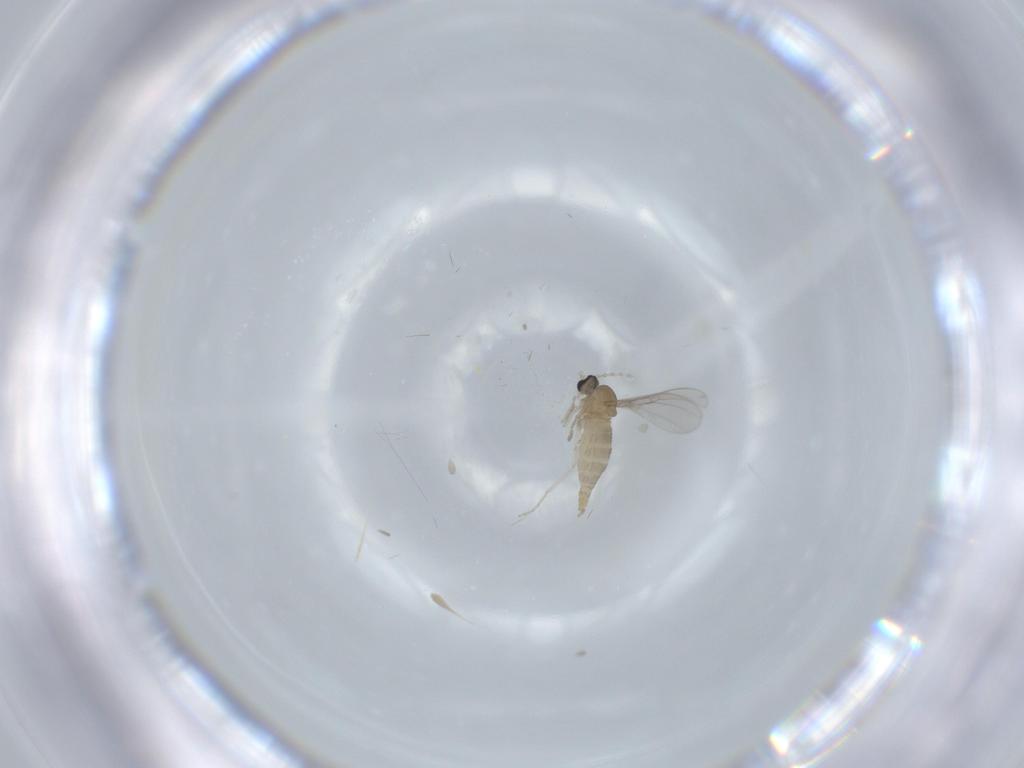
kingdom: Animalia
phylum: Arthropoda
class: Insecta
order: Diptera
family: Cecidomyiidae
